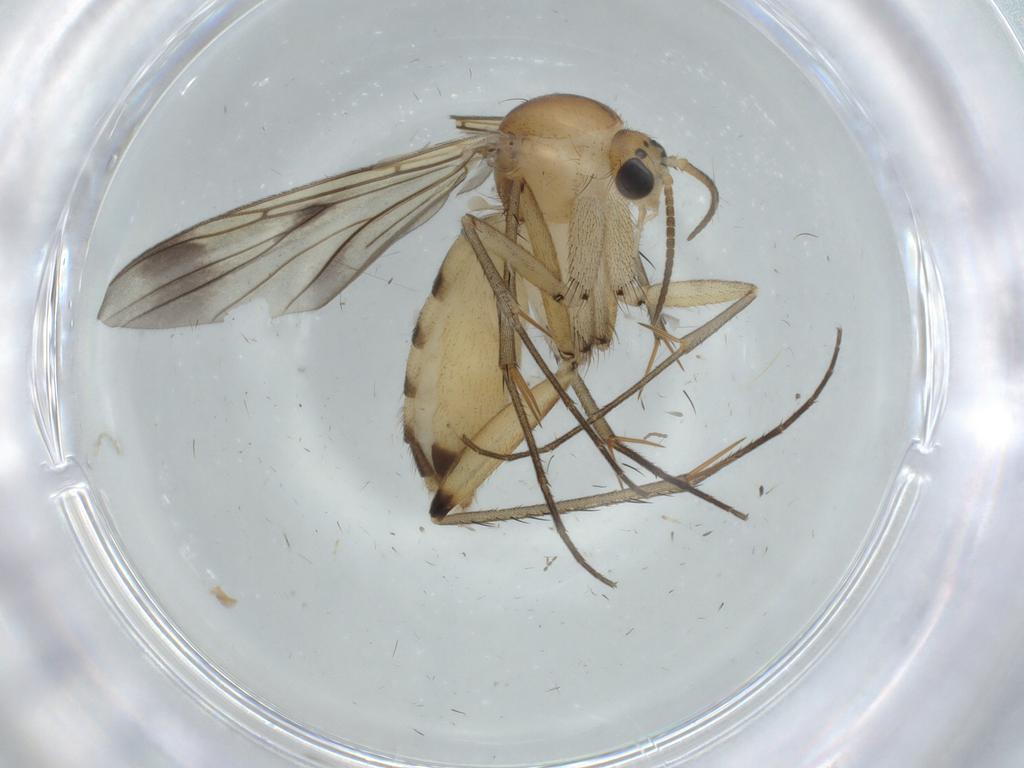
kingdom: Animalia
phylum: Arthropoda
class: Insecta
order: Diptera
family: Mycetophilidae
